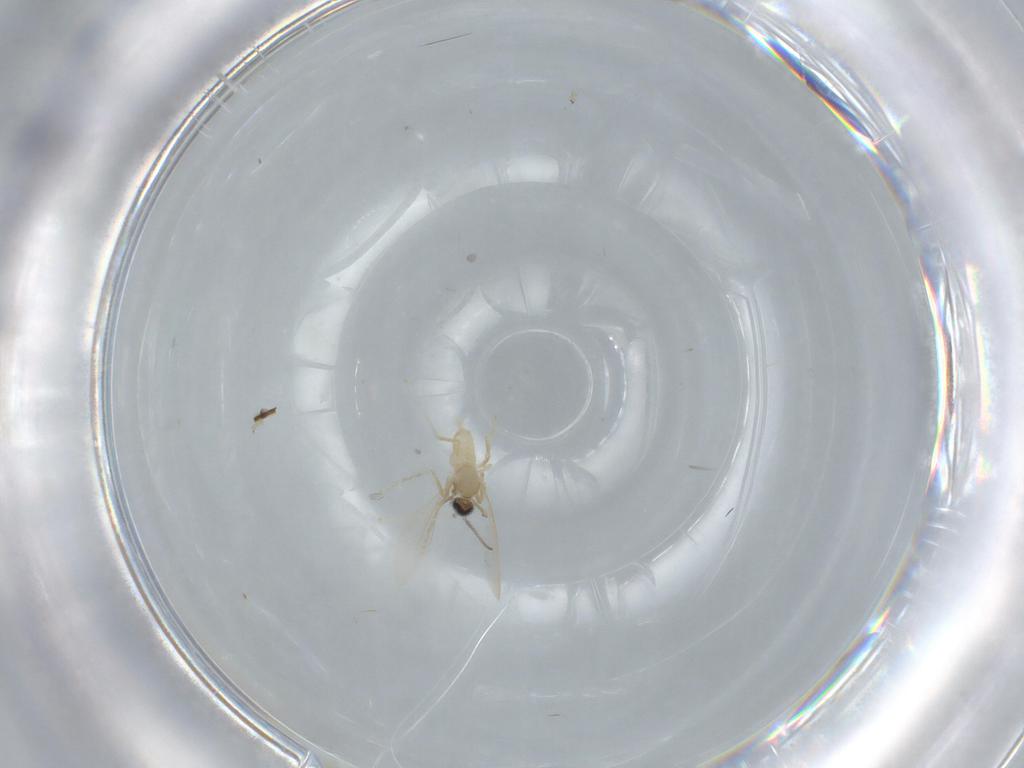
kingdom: Animalia
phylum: Arthropoda
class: Insecta
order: Diptera
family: Cecidomyiidae
